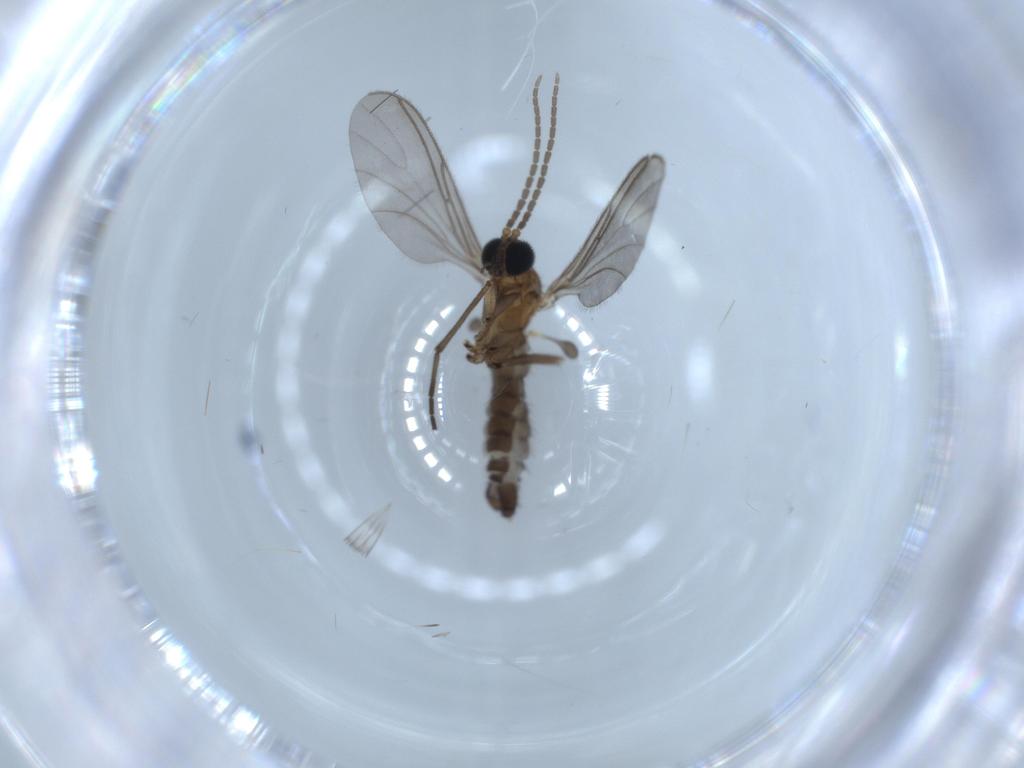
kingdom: Animalia
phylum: Arthropoda
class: Insecta
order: Diptera
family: Sciaridae
